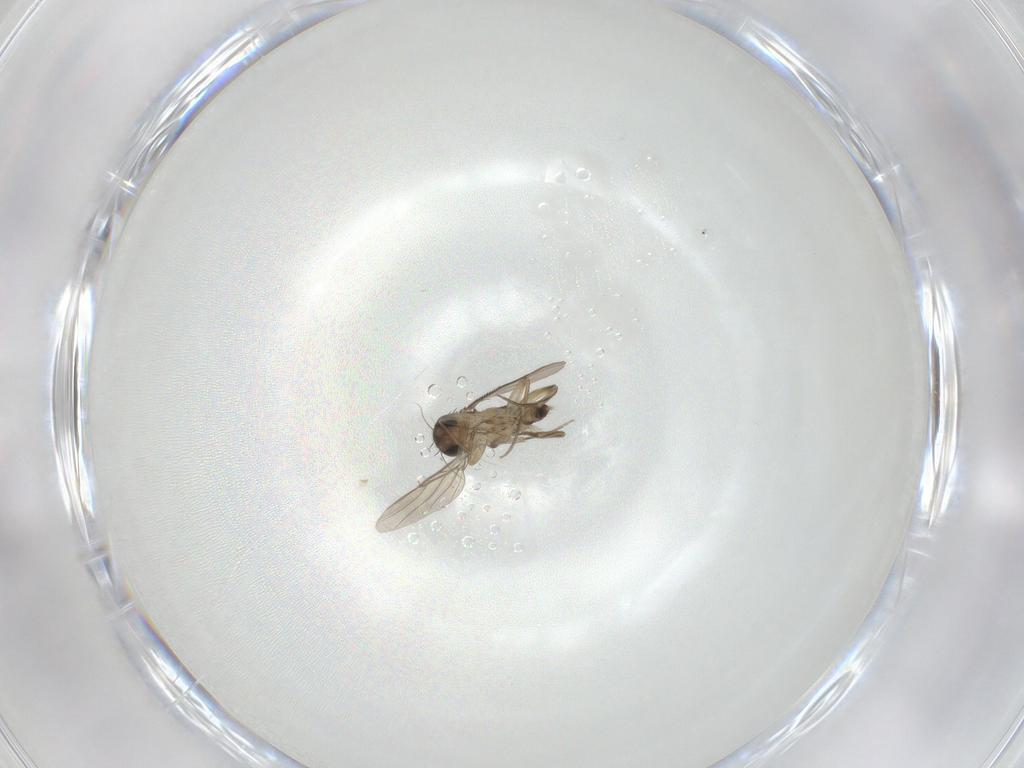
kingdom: Animalia
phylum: Arthropoda
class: Insecta
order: Diptera
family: Phoridae
